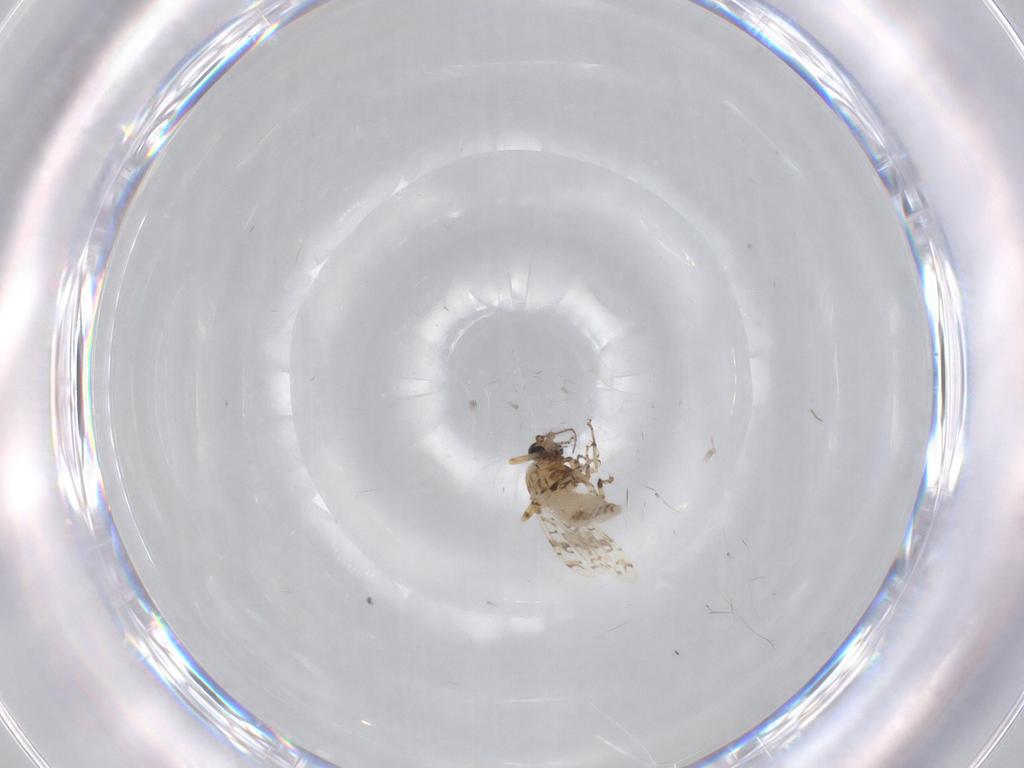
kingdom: Animalia
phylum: Arthropoda
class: Insecta
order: Diptera
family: Ceratopogonidae
